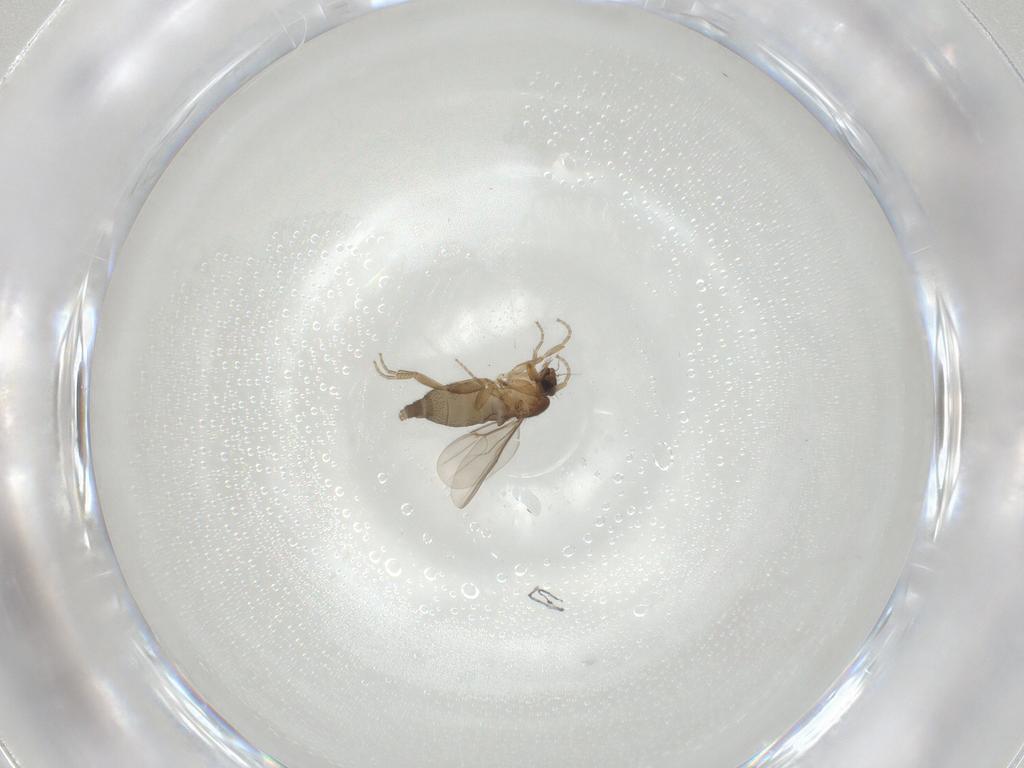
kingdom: Animalia
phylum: Arthropoda
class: Insecta
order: Diptera
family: Phoridae
